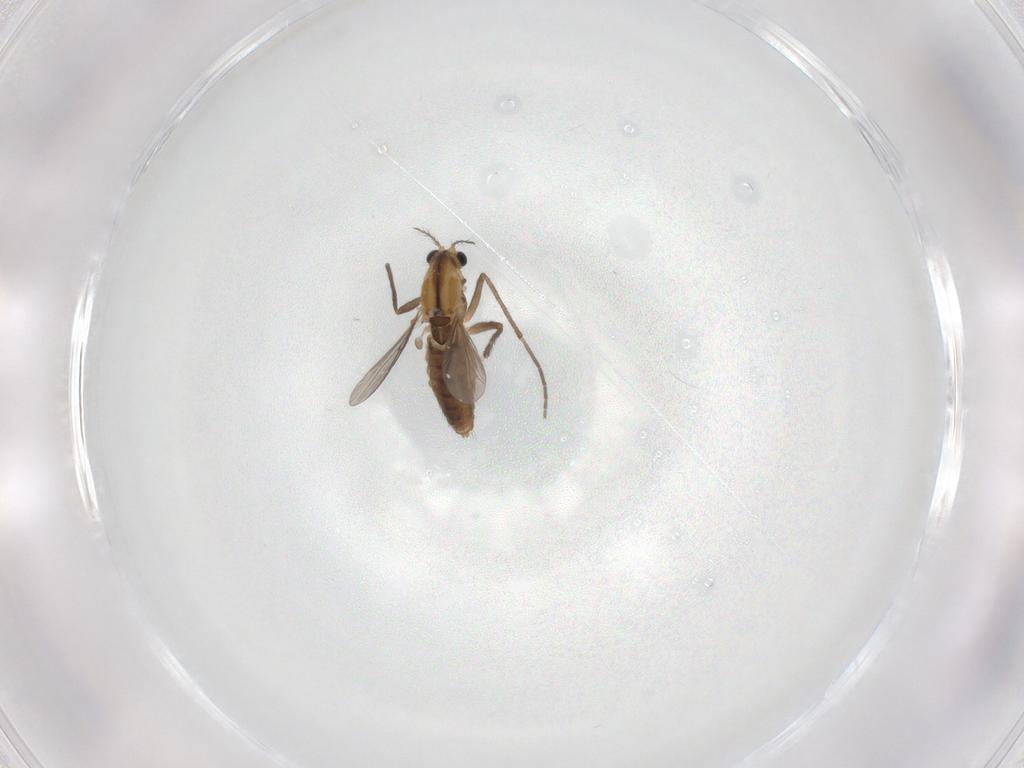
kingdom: Animalia
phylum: Arthropoda
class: Insecta
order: Diptera
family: Chironomidae
